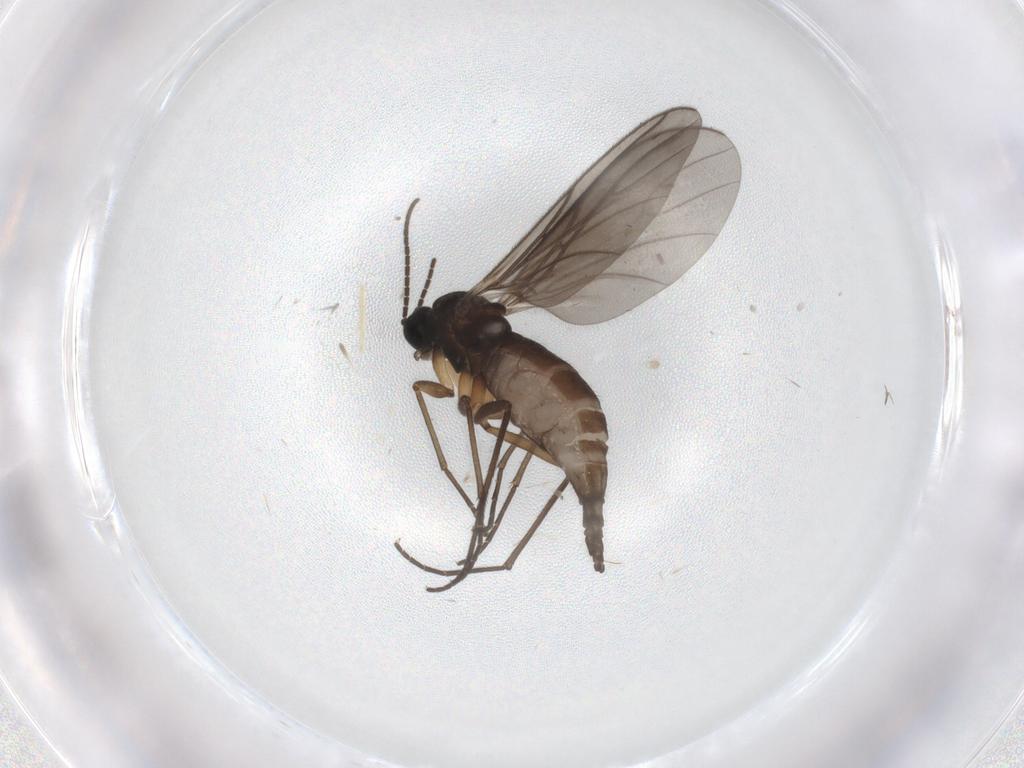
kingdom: Animalia
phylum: Arthropoda
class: Insecta
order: Diptera
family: Sciaridae
